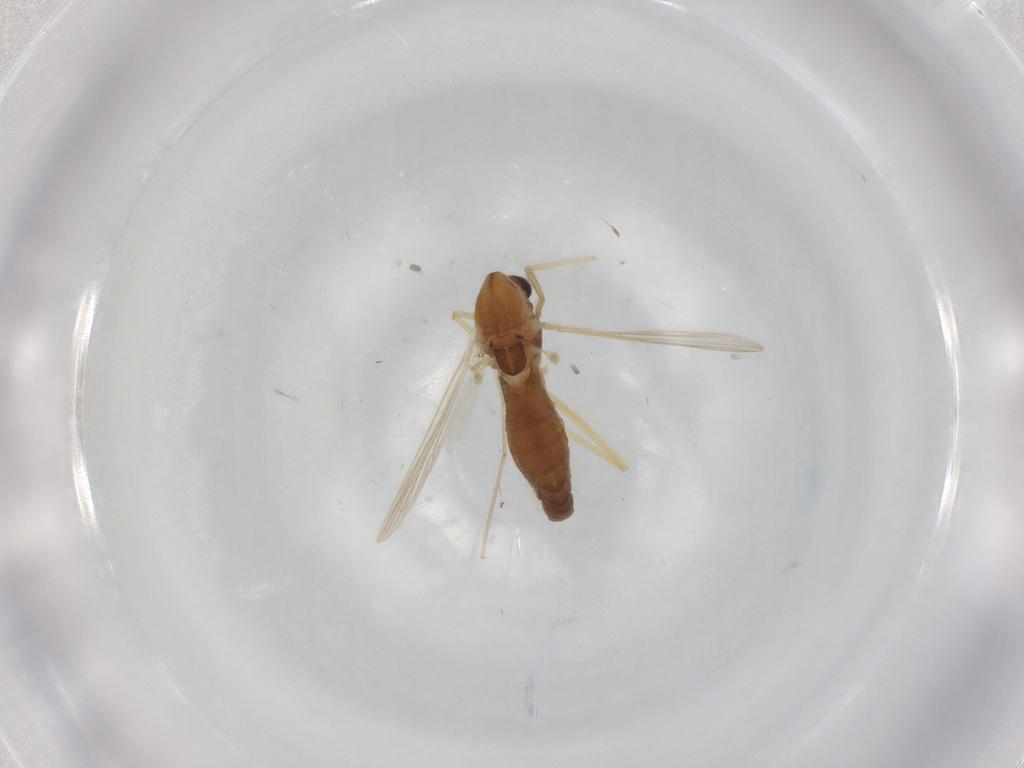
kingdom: Animalia
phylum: Arthropoda
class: Insecta
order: Diptera
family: Chironomidae
